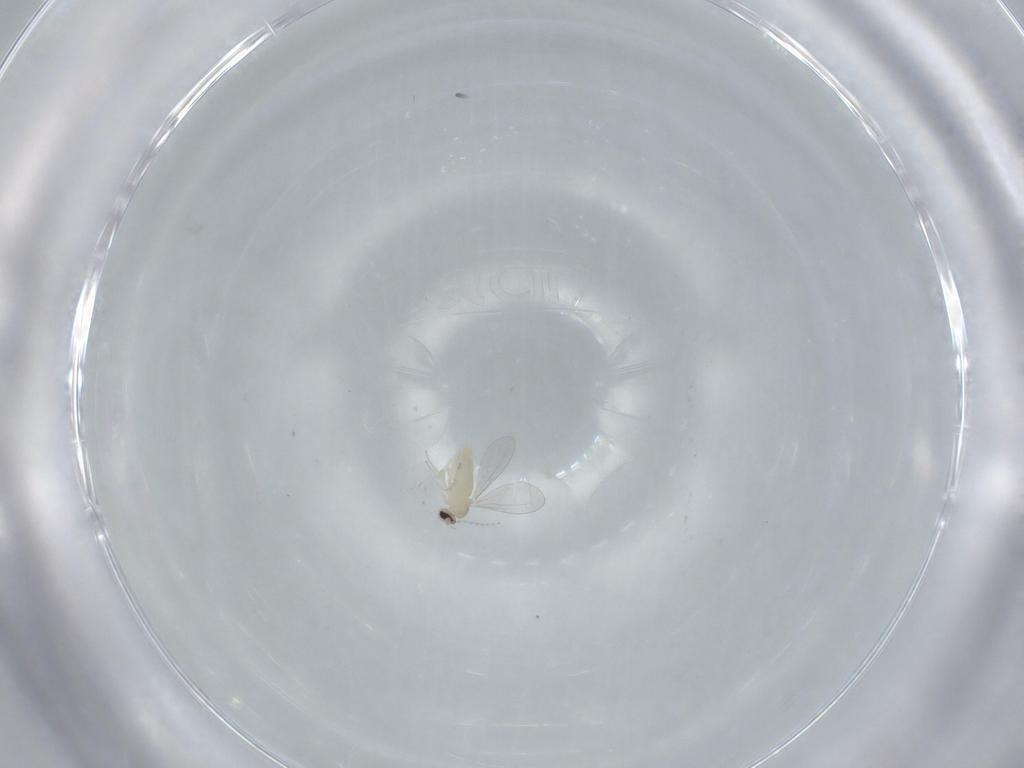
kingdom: Animalia
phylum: Arthropoda
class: Insecta
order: Diptera
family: Cecidomyiidae
